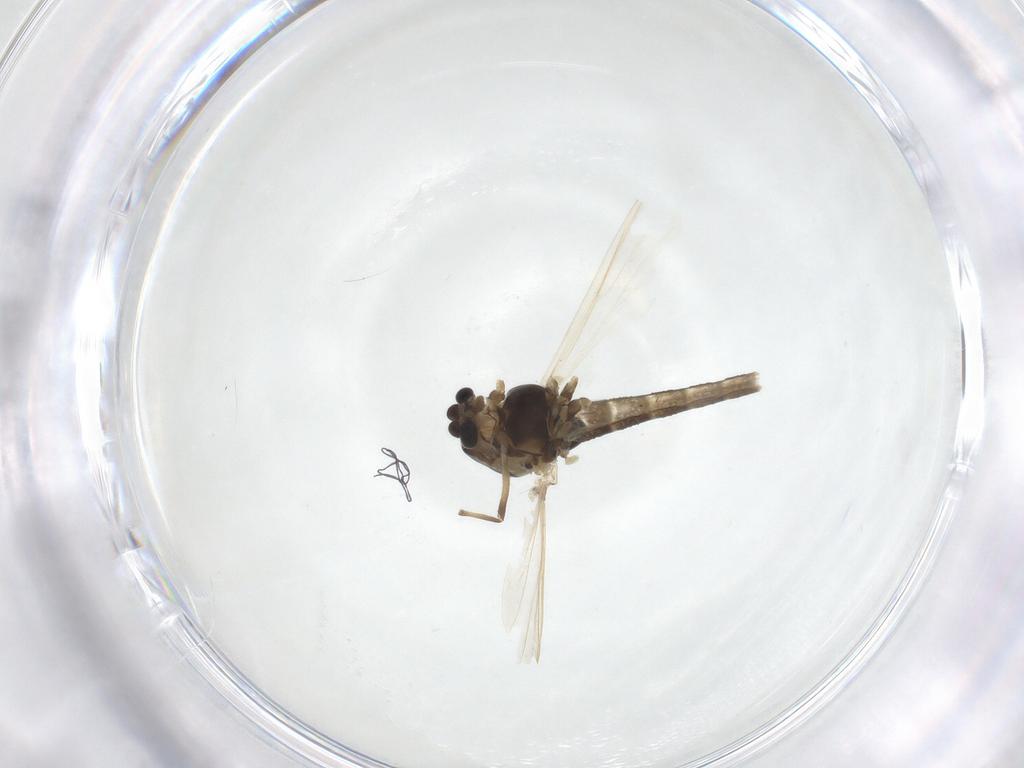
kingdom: Animalia
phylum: Arthropoda
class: Insecta
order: Diptera
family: Chironomidae
